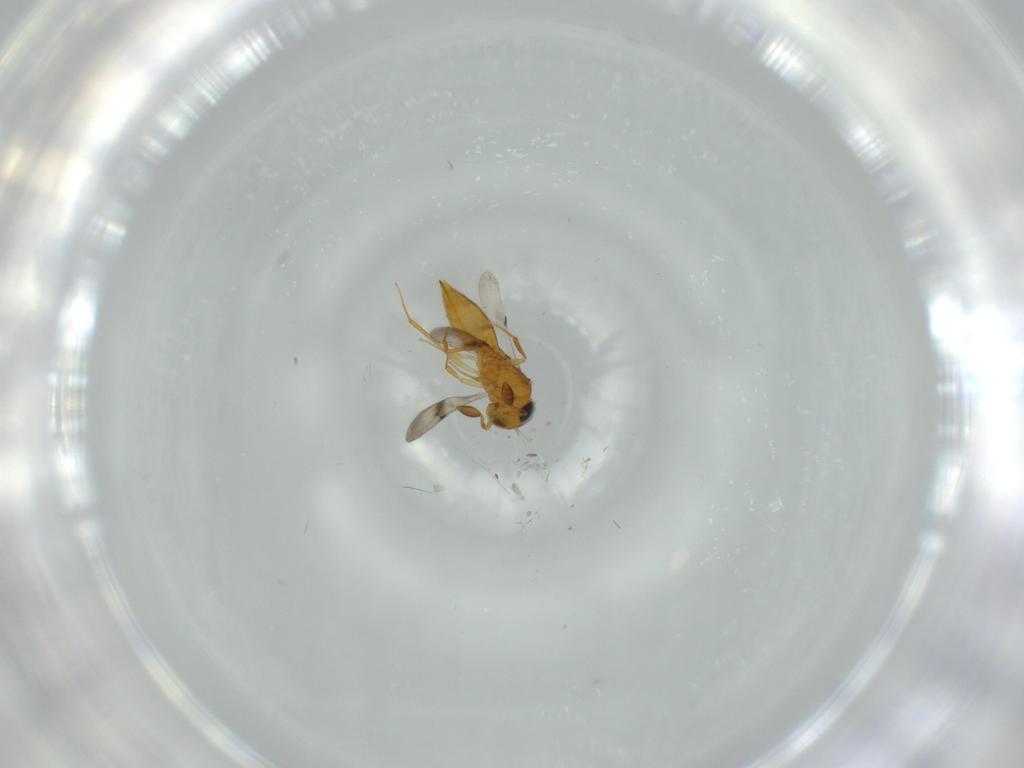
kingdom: Animalia
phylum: Arthropoda
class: Insecta
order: Hymenoptera
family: Scelionidae
